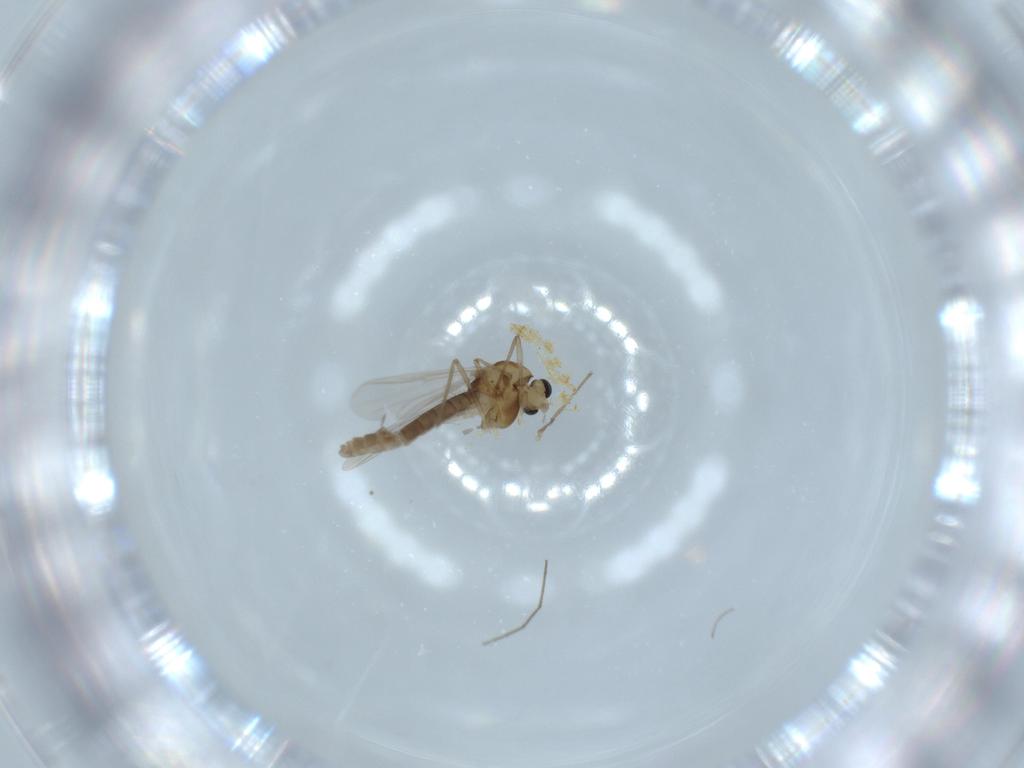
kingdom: Animalia
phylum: Arthropoda
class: Insecta
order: Diptera
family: Chironomidae
